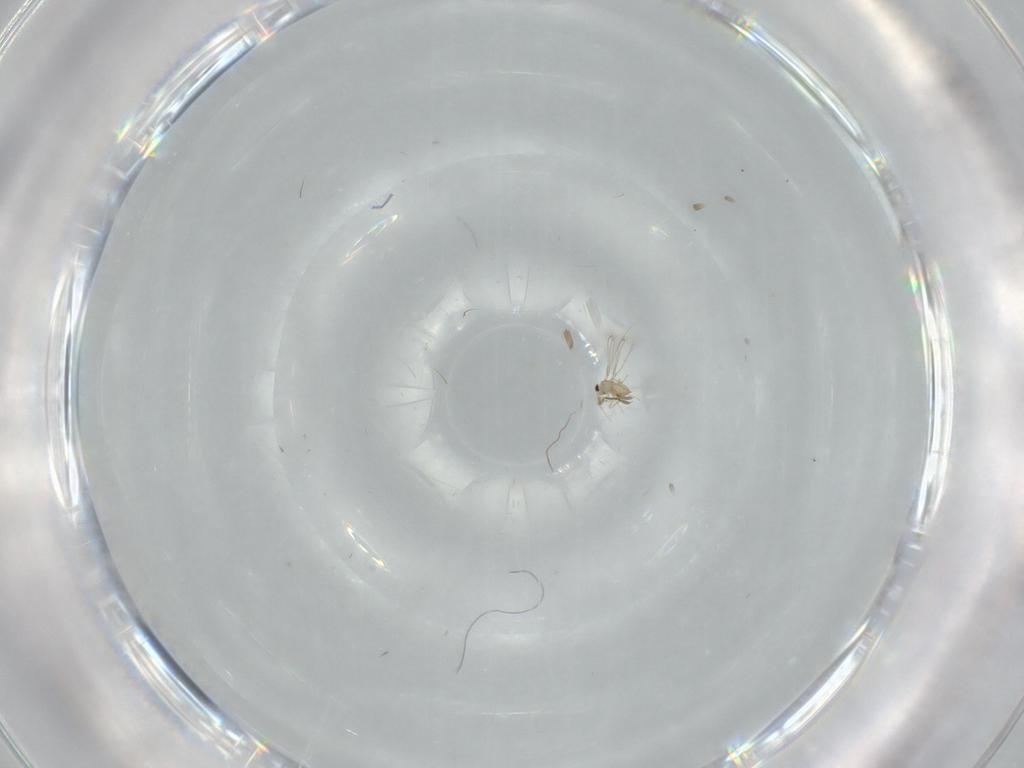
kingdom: Animalia
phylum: Arthropoda
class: Insecta
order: Hymenoptera
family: Mymaridae
